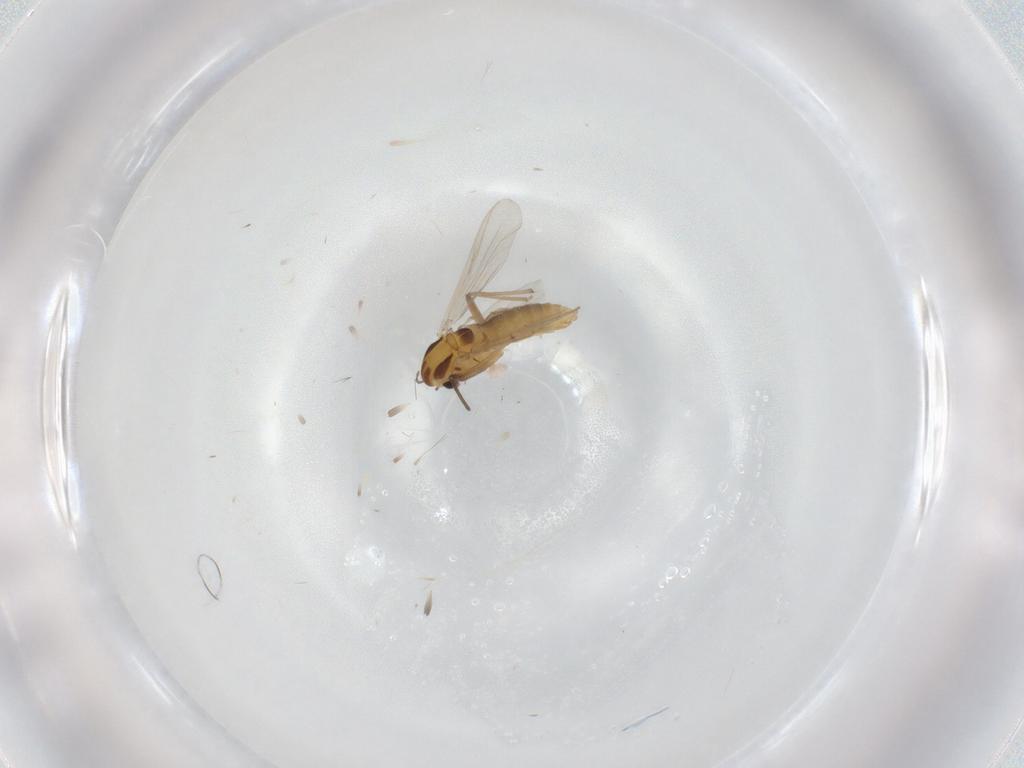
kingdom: Animalia
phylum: Arthropoda
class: Insecta
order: Diptera
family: Chironomidae
